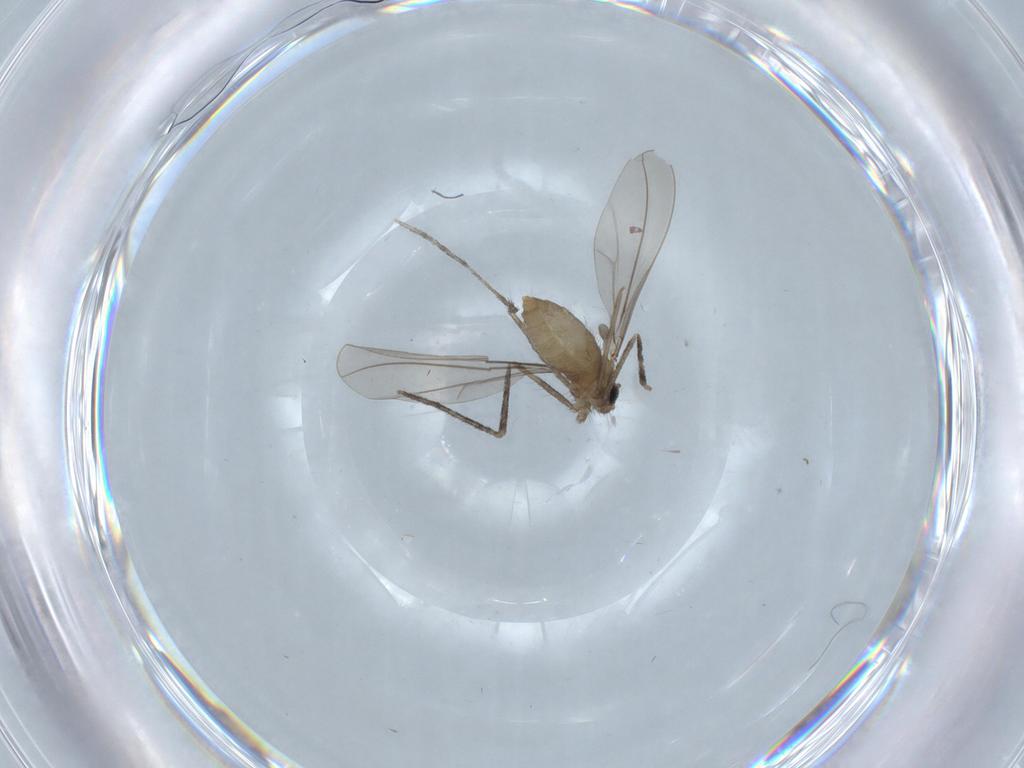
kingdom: Animalia
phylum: Arthropoda
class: Insecta
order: Diptera
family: Cecidomyiidae
